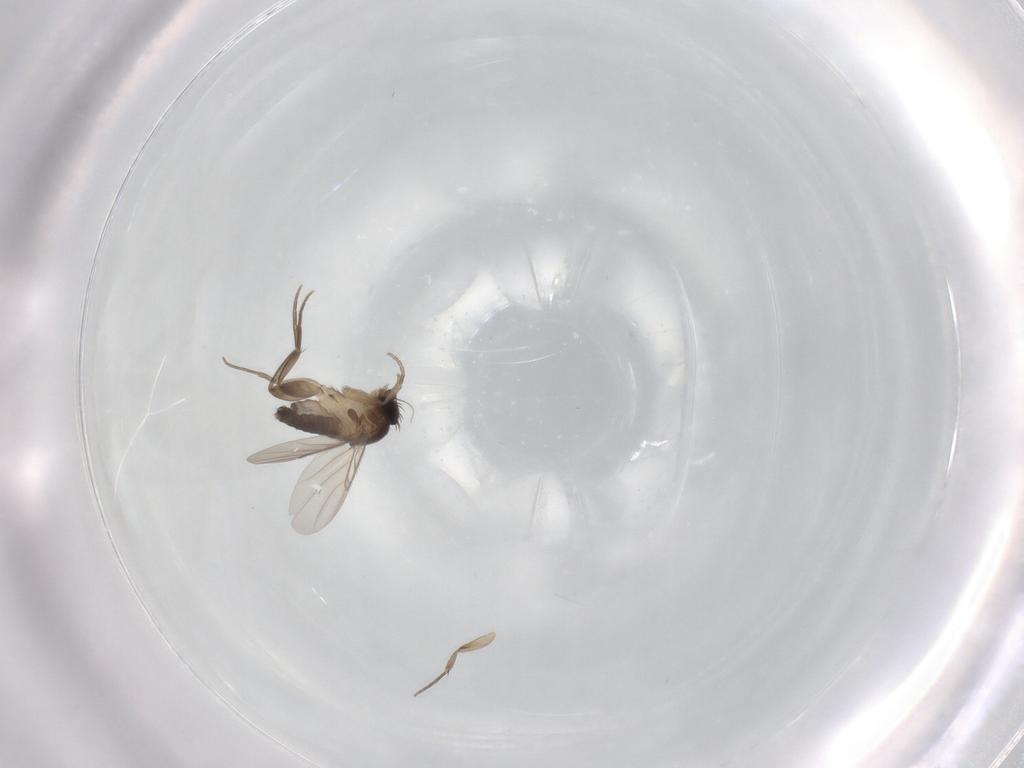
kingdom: Animalia
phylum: Arthropoda
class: Insecta
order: Diptera
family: Phoridae
